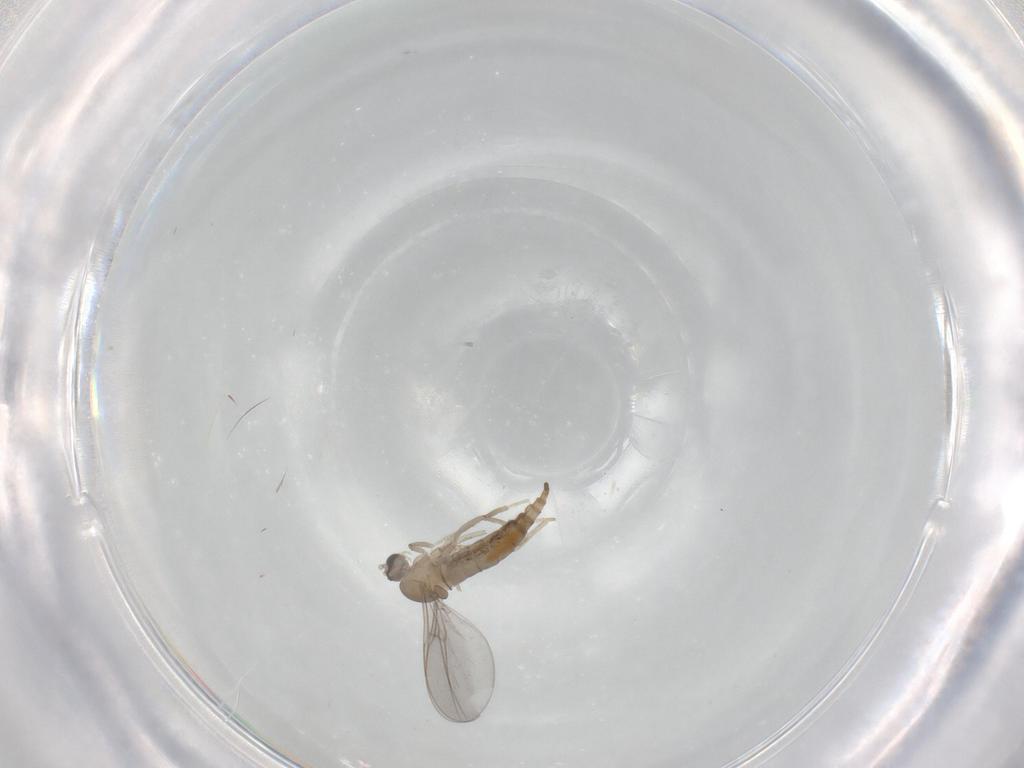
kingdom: Animalia
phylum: Arthropoda
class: Insecta
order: Diptera
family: Cecidomyiidae
